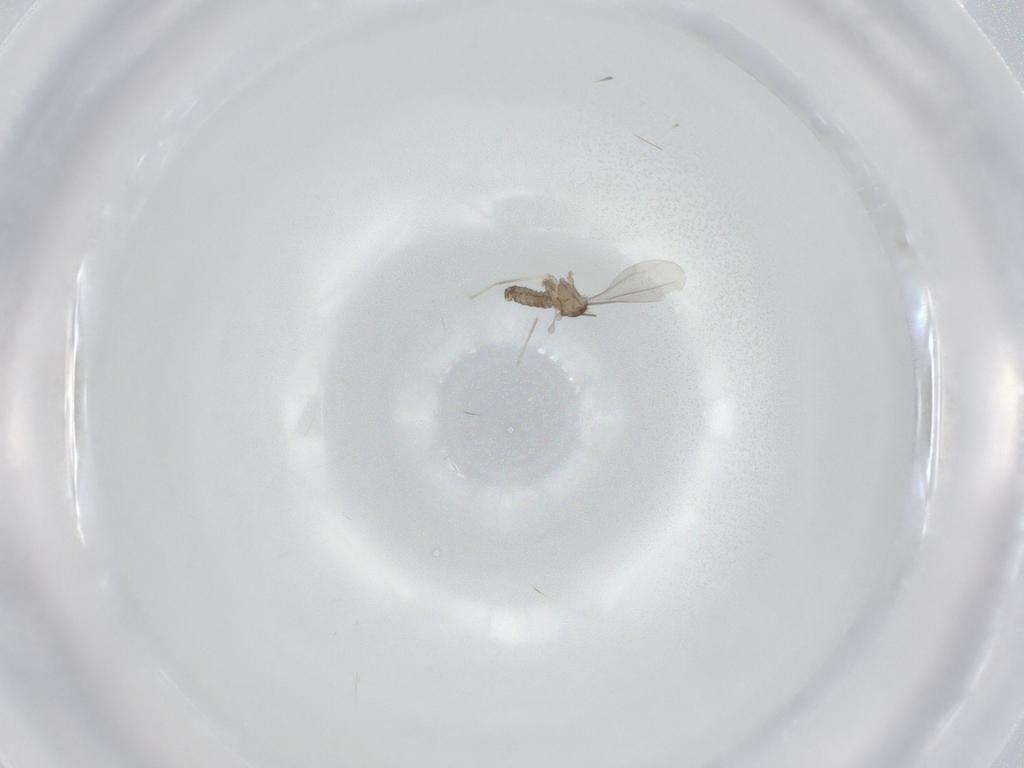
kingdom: Animalia
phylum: Arthropoda
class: Insecta
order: Diptera
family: Cecidomyiidae
